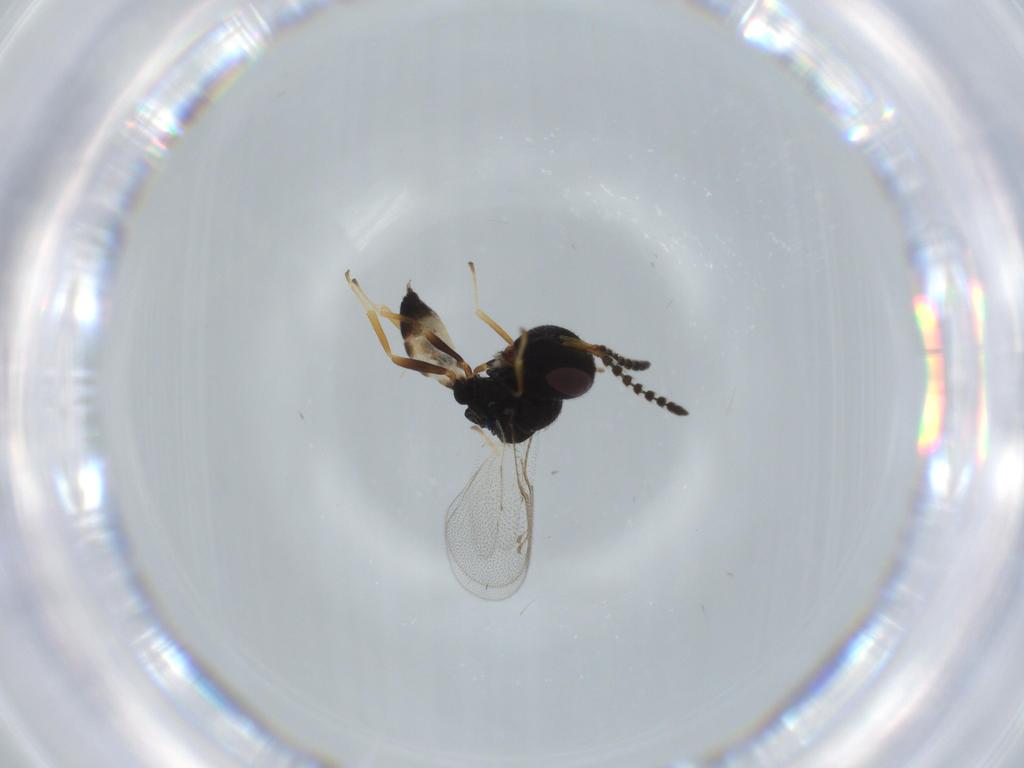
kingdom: Animalia
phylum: Arthropoda
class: Insecta
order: Hymenoptera
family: Pteromalidae
